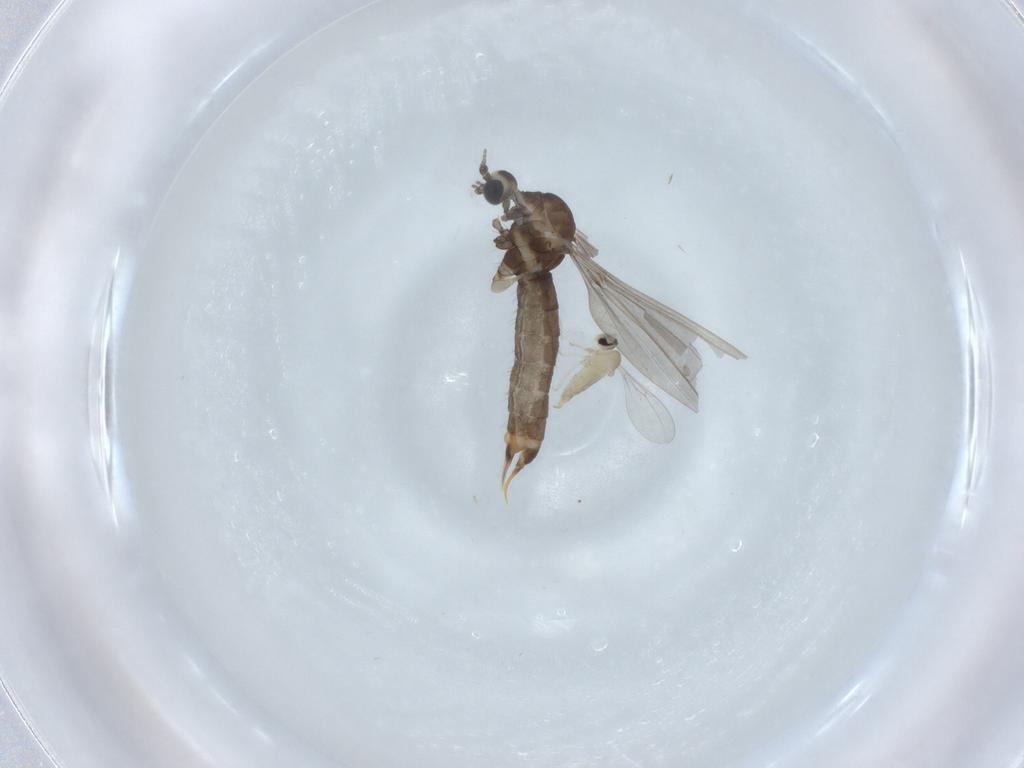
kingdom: Animalia
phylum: Arthropoda
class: Insecta
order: Diptera
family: Limoniidae
